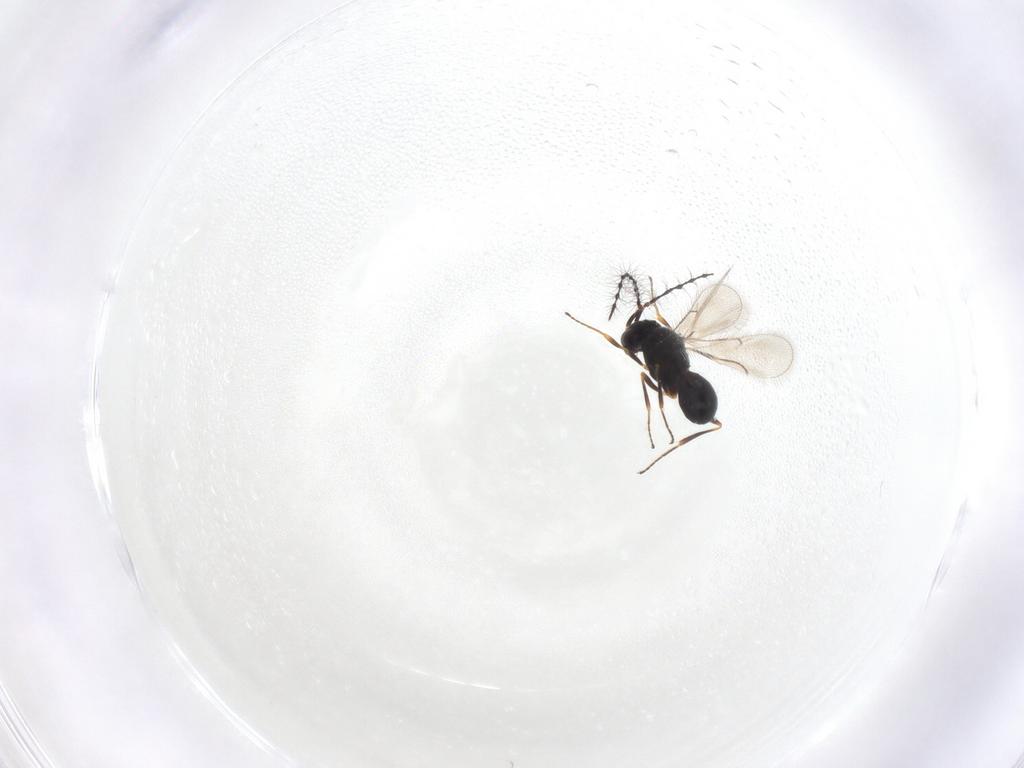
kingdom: Animalia
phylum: Arthropoda
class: Insecta
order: Hymenoptera
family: Scelionidae
